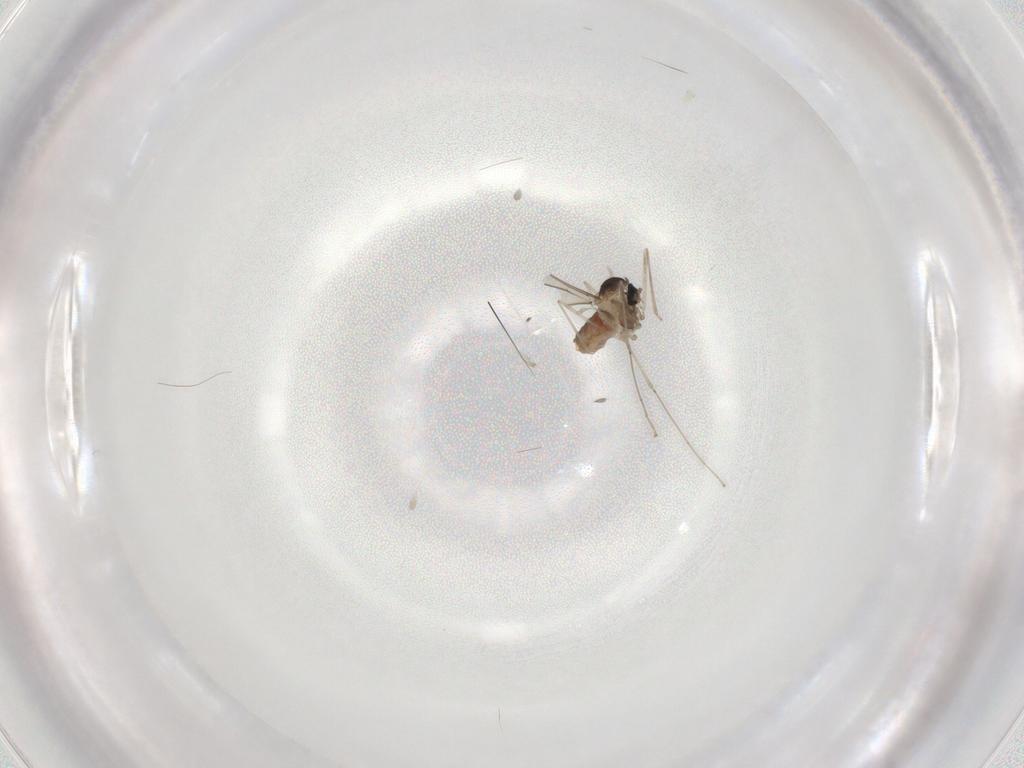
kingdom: Animalia
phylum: Arthropoda
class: Insecta
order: Diptera
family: Cecidomyiidae
